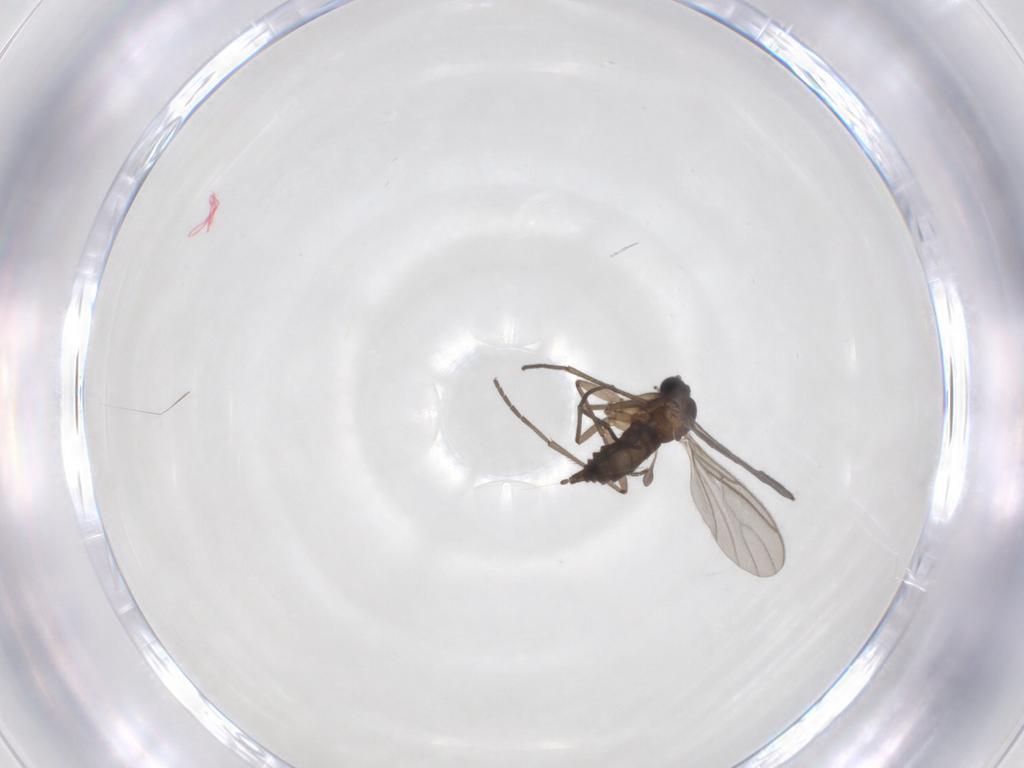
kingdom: Animalia
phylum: Arthropoda
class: Insecta
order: Diptera
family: Sciaridae
